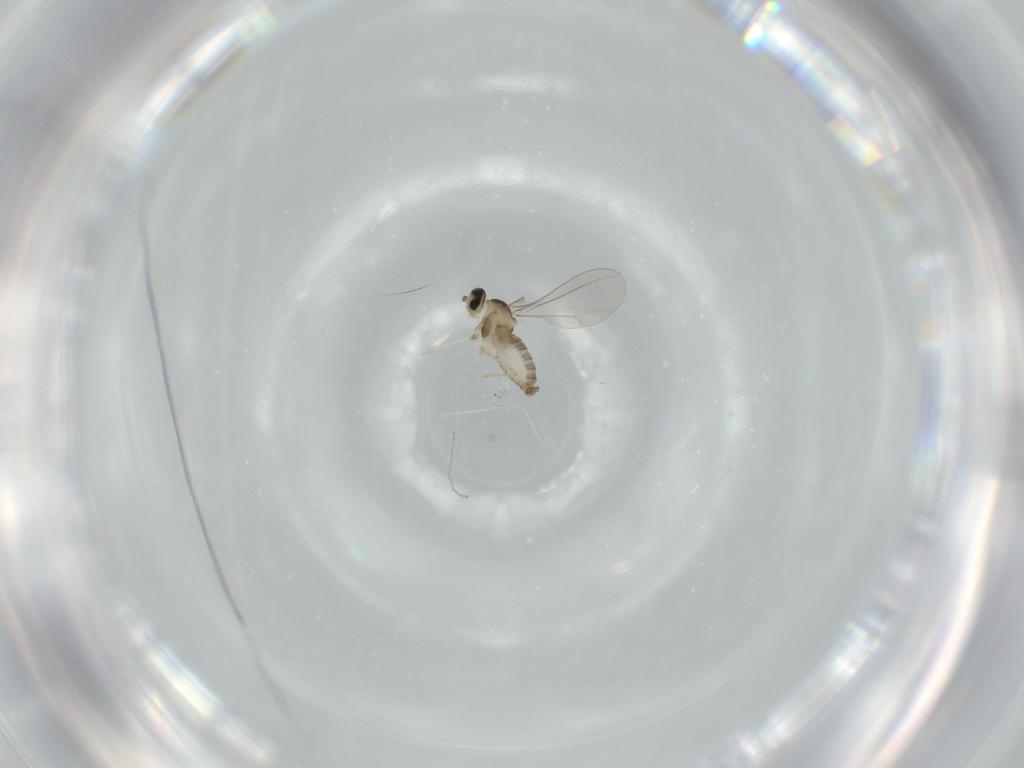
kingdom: Animalia
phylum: Arthropoda
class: Insecta
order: Diptera
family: Cecidomyiidae
